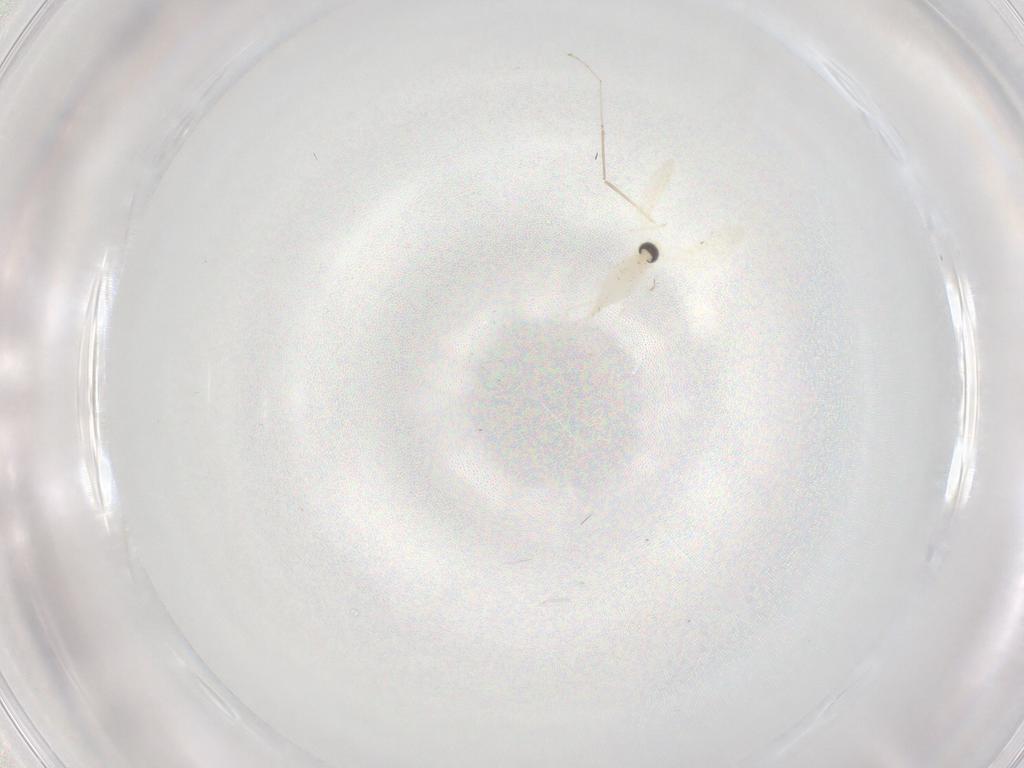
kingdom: Animalia
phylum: Arthropoda
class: Insecta
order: Diptera
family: Cecidomyiidae
